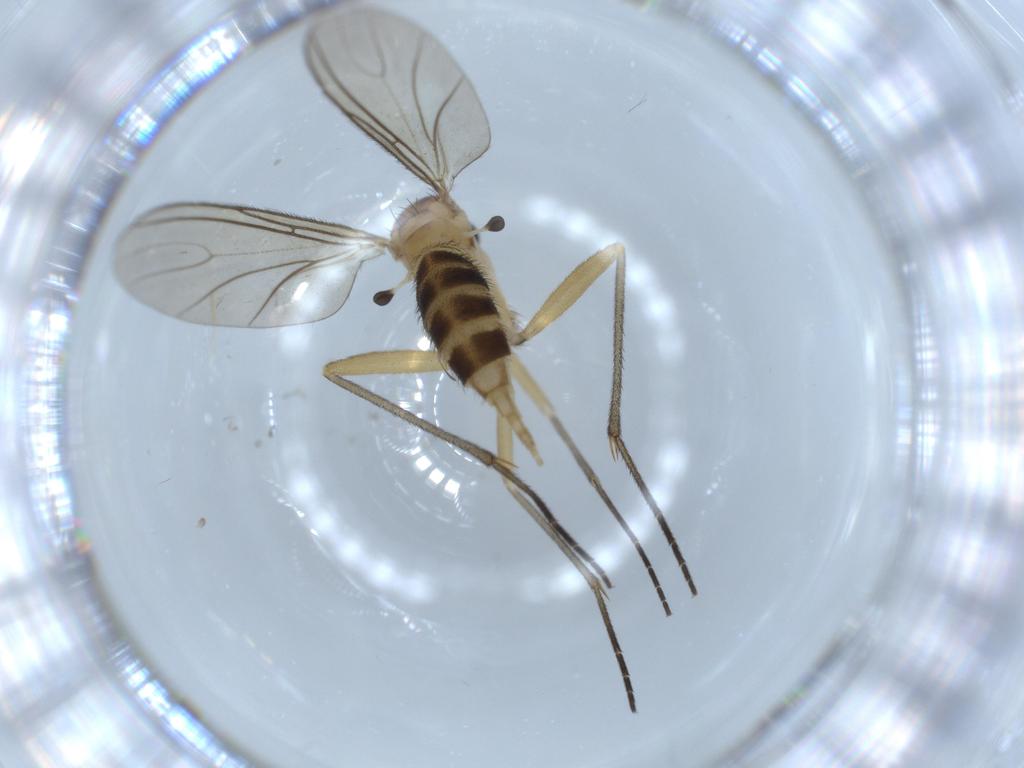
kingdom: Animalia
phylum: Arthropoda
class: Insecta
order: Diptera
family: Sciaridae
